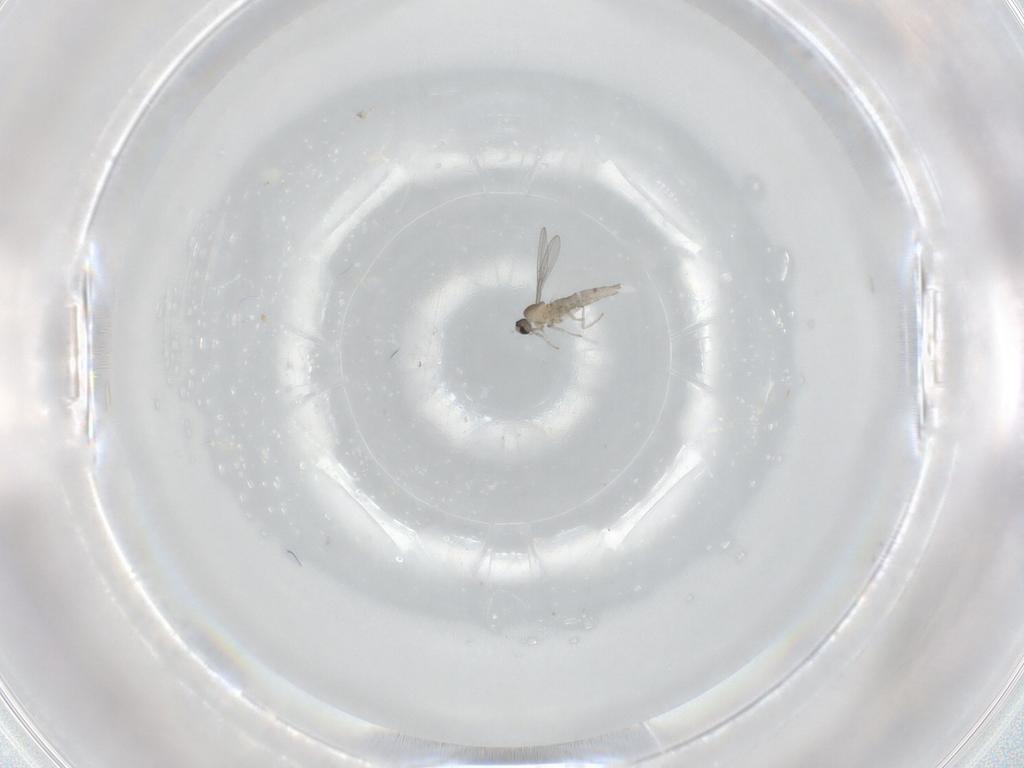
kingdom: Animalia
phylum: Arthropoda
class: Insecta
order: Diptera
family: Cecidomyiidae
